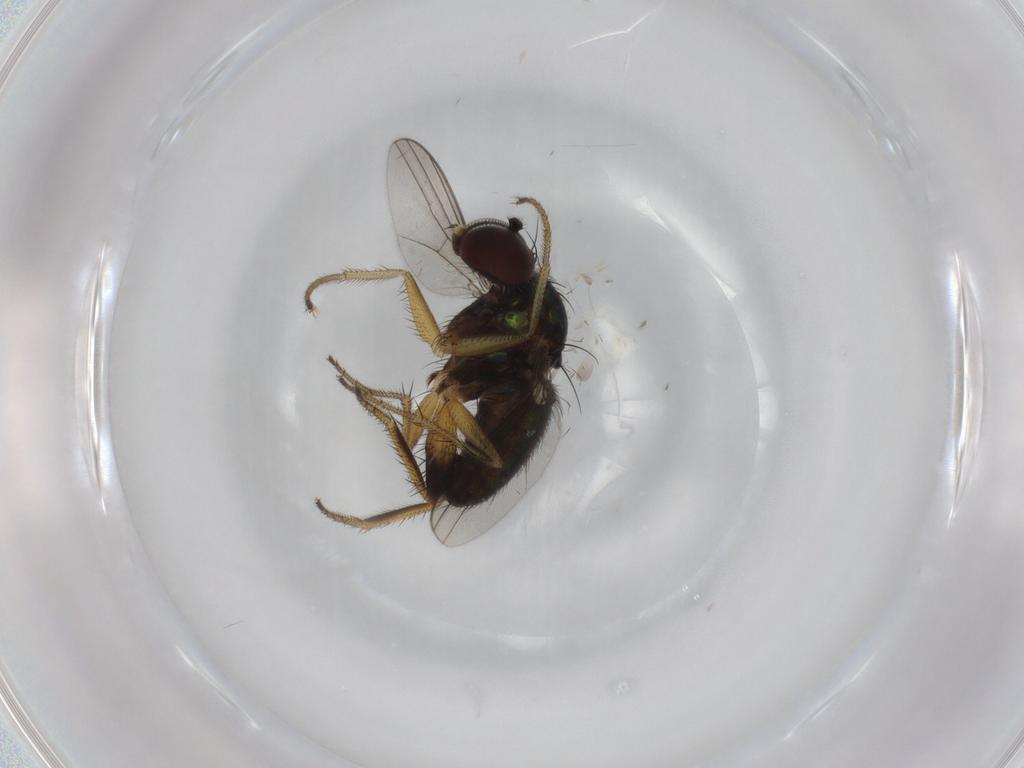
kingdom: Animalia
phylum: Arthropoda
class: Insecta
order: Diptera
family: Dolichopodidae
